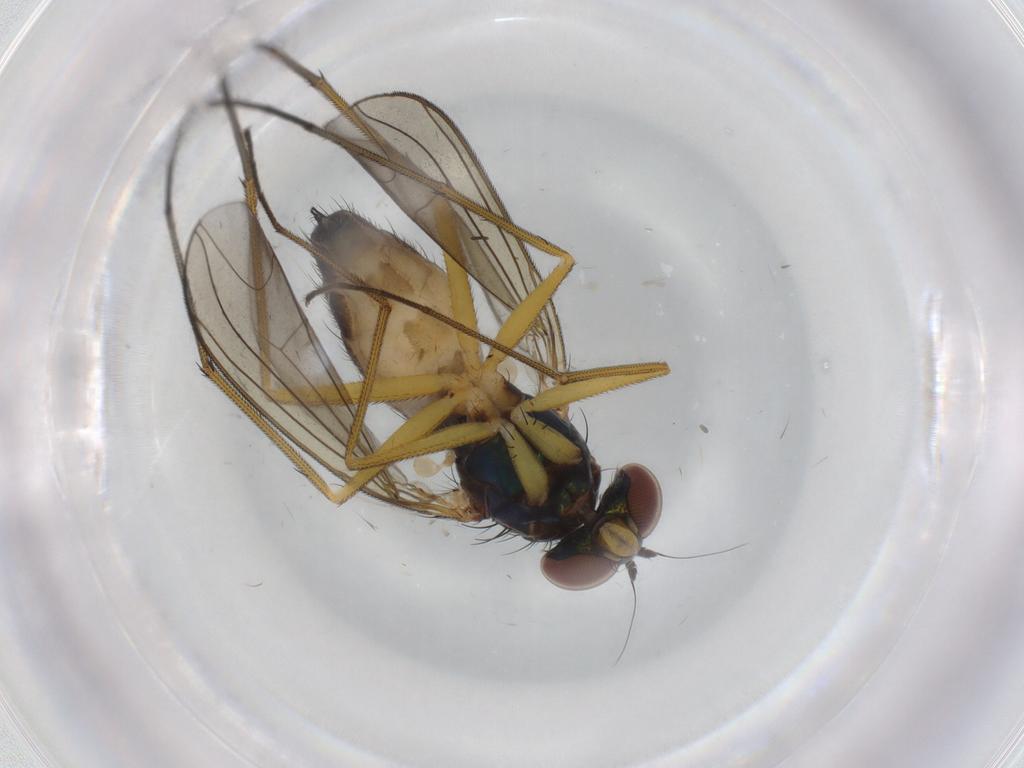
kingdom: Animalia
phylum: Arthropoda
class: Insecta
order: Diptera
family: Dolichopodidae
